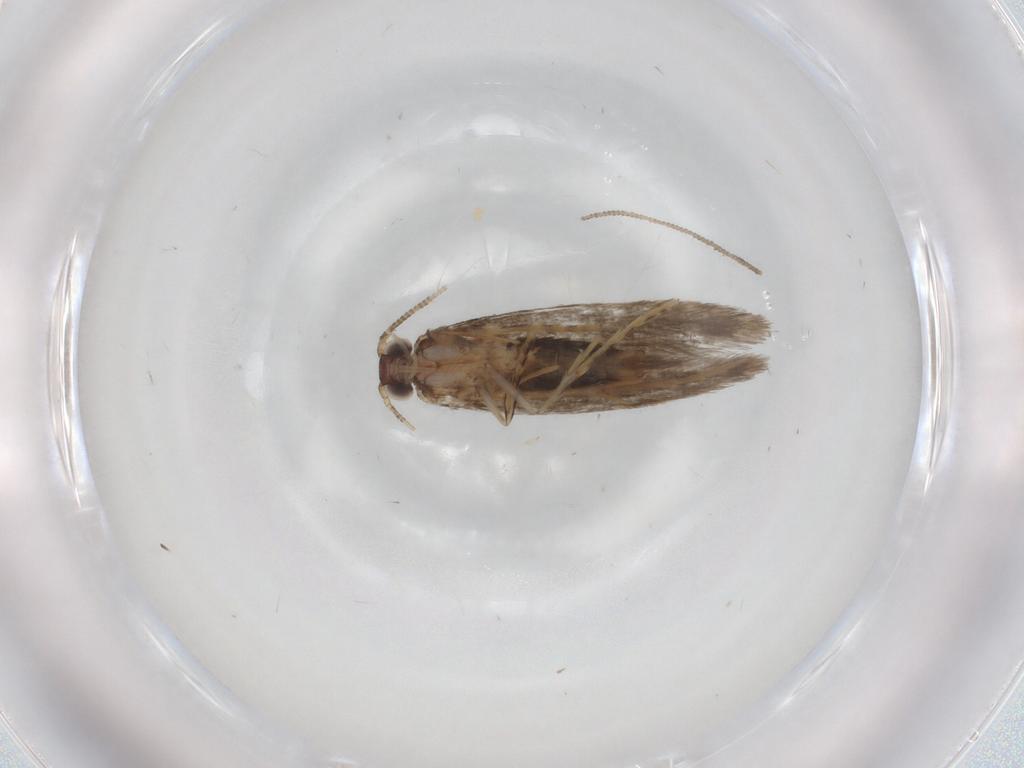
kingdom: Animalia
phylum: Arthropoda
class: Insecta
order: Lepidoptera
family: Tineidae
